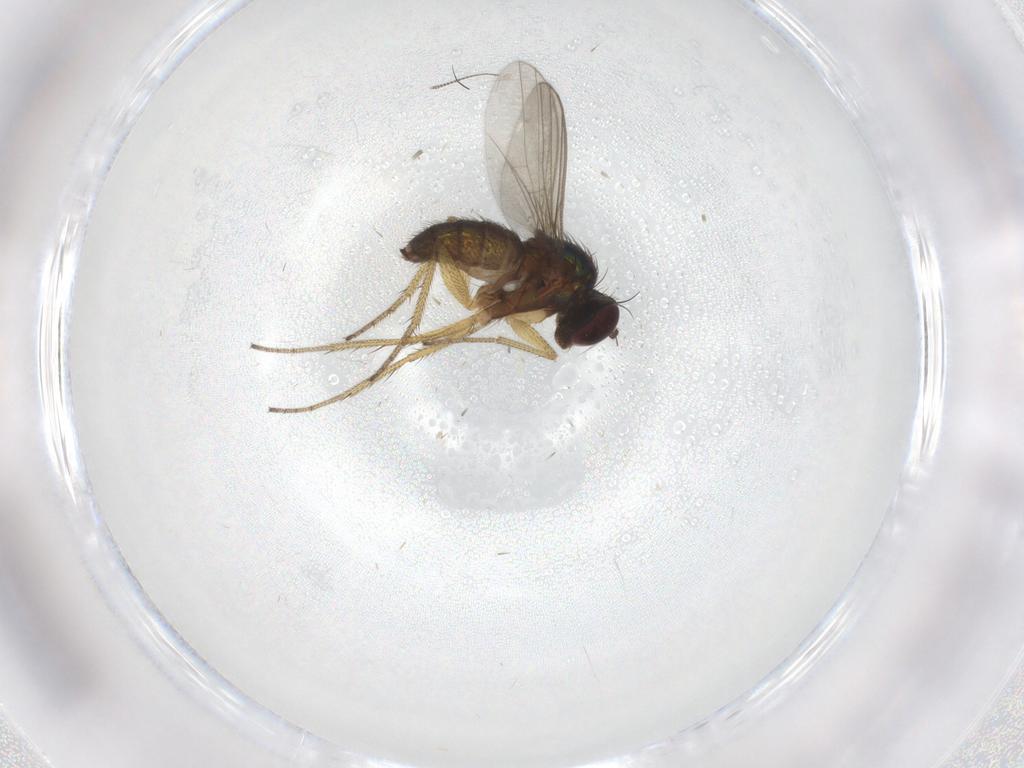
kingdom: Animalia
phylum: Arthropoda
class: Insecta
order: Diptera
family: Dolichopodidae
